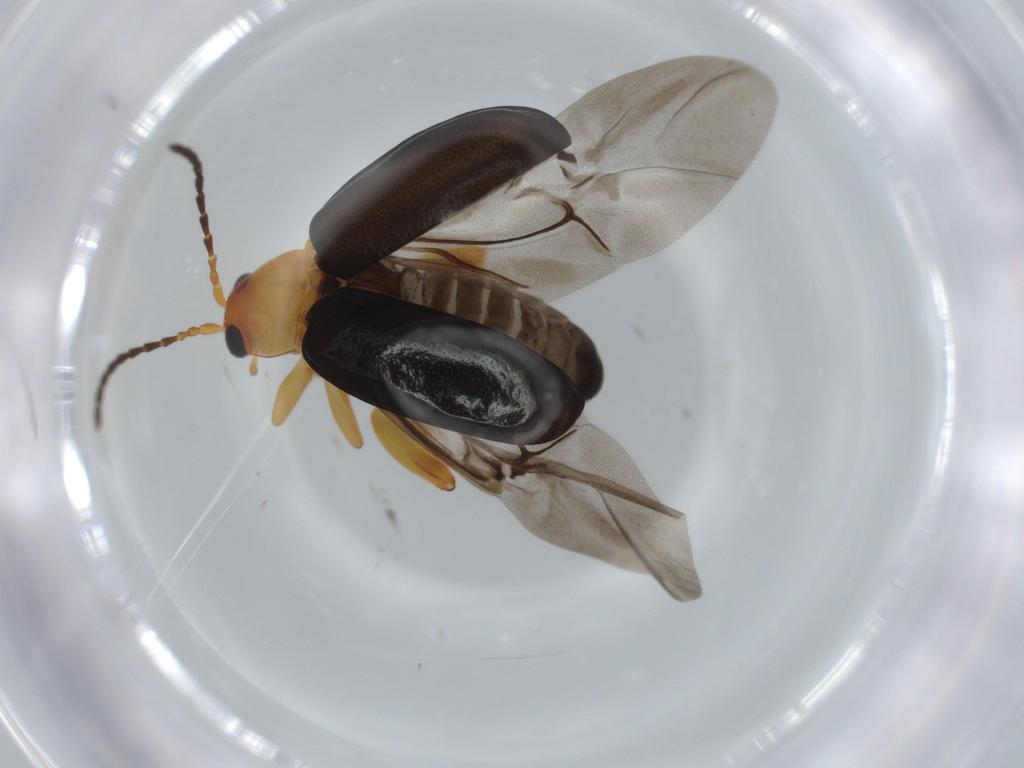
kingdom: Animalia
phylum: Arthropoda
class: Insecta
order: Coleoptera
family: Chrysomelidae
